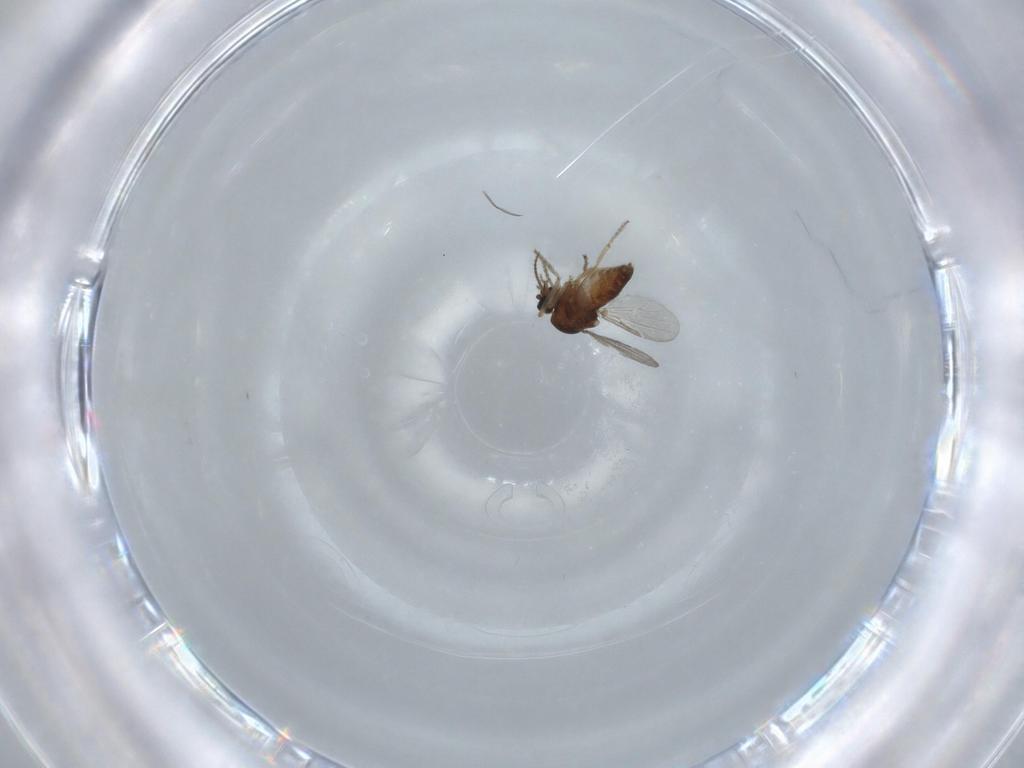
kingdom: Animalia
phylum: Arthropoda
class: Insecta
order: Diptera
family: Ceratopogonidae
